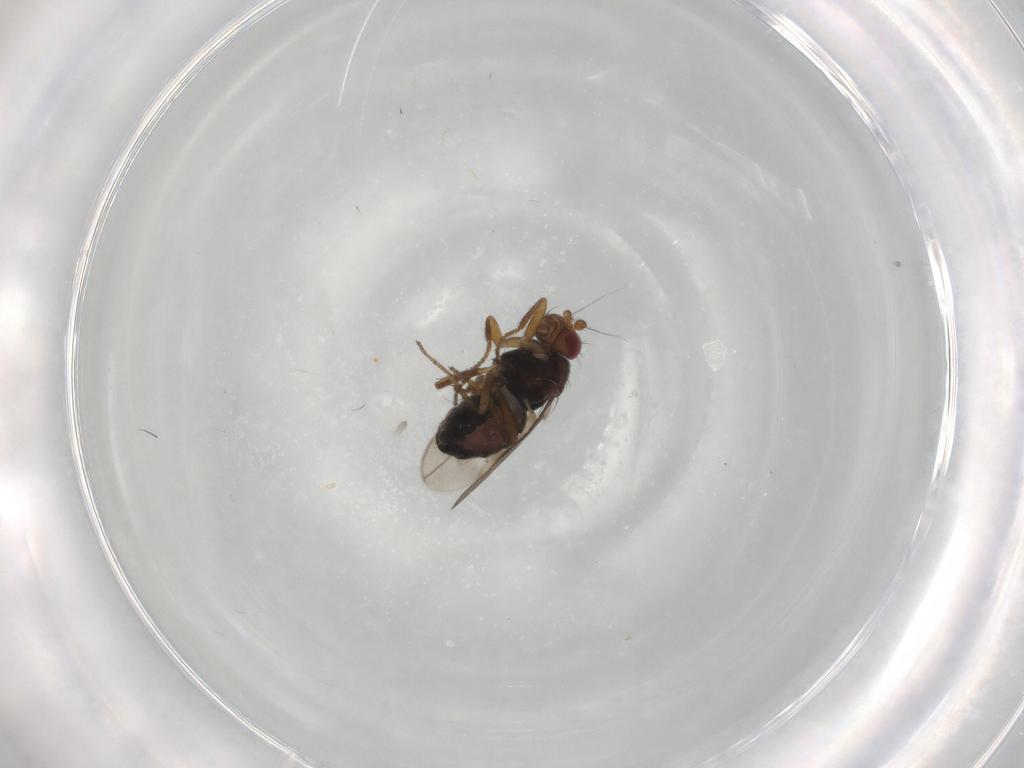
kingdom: Animalia
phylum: Arthropoda
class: Insecta
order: Diptera
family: Sphaeroceridae
